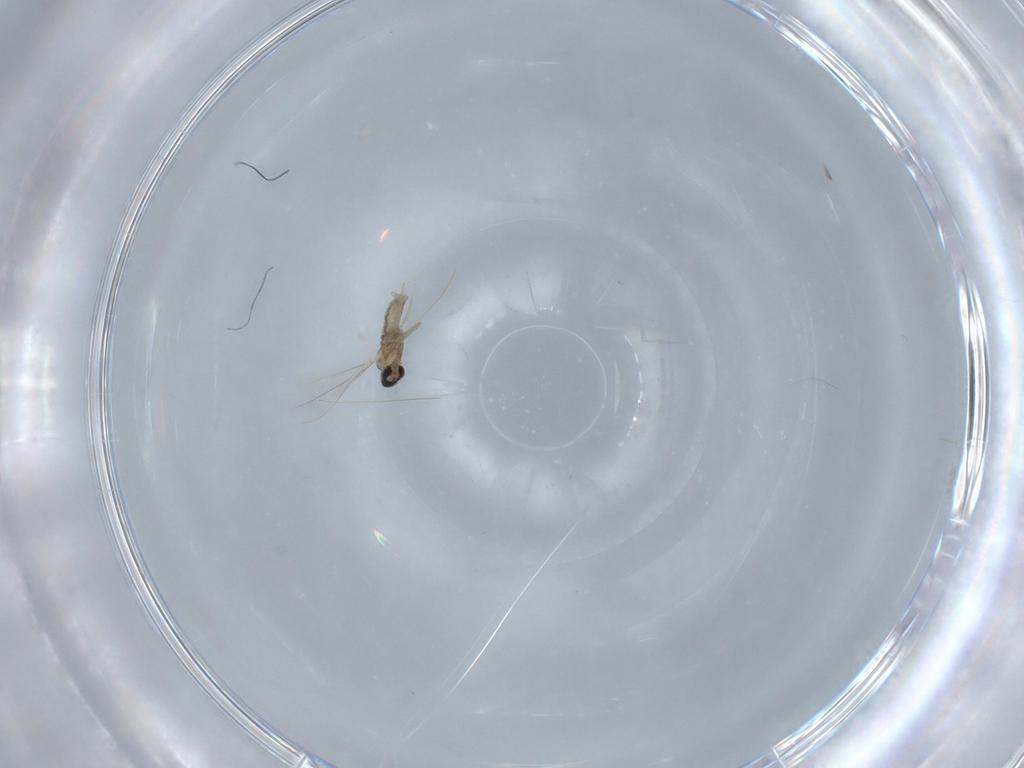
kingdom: Animalia
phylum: Arthropoda
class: Insecta
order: Diptera
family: Cecidomyiidae
